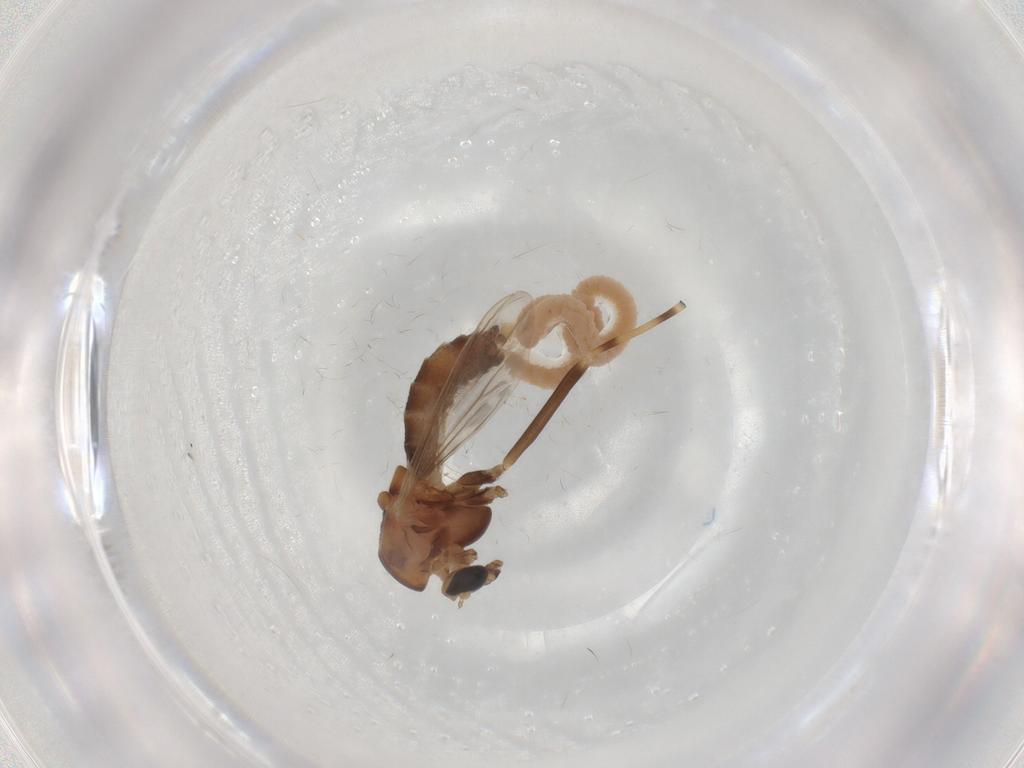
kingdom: Animalia
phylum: Arthropoda
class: Insecta
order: Diptera
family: Chironomidae
